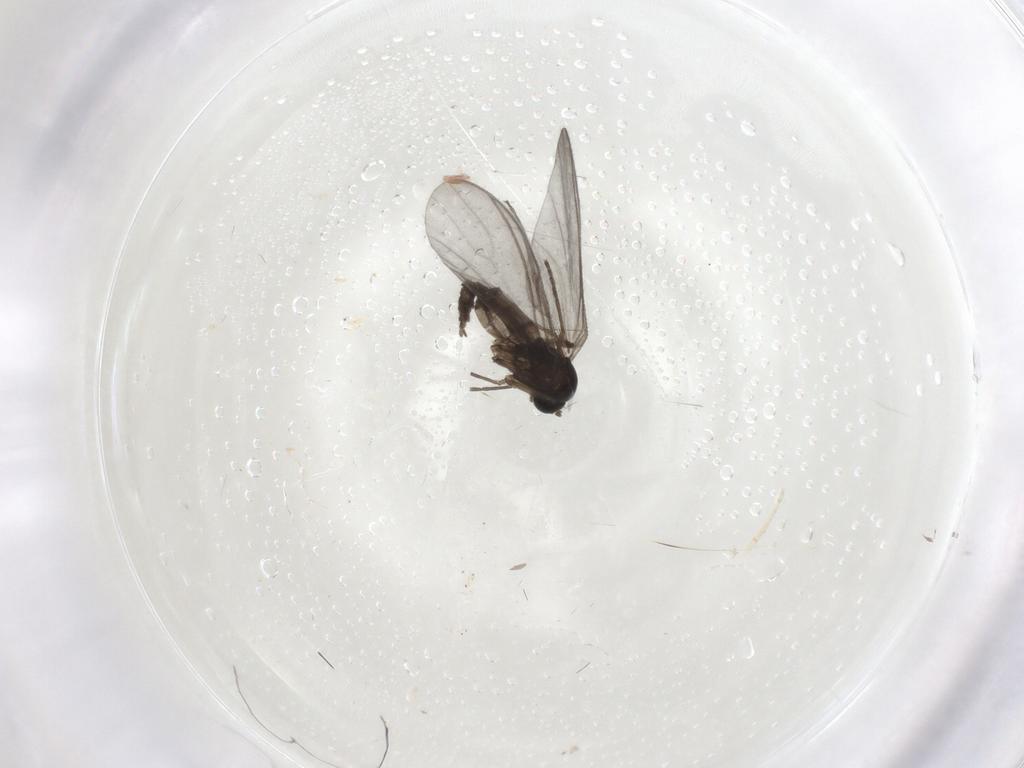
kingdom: Animalia
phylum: Arthropoda
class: Insecta
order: Diptera
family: Sciaridae
